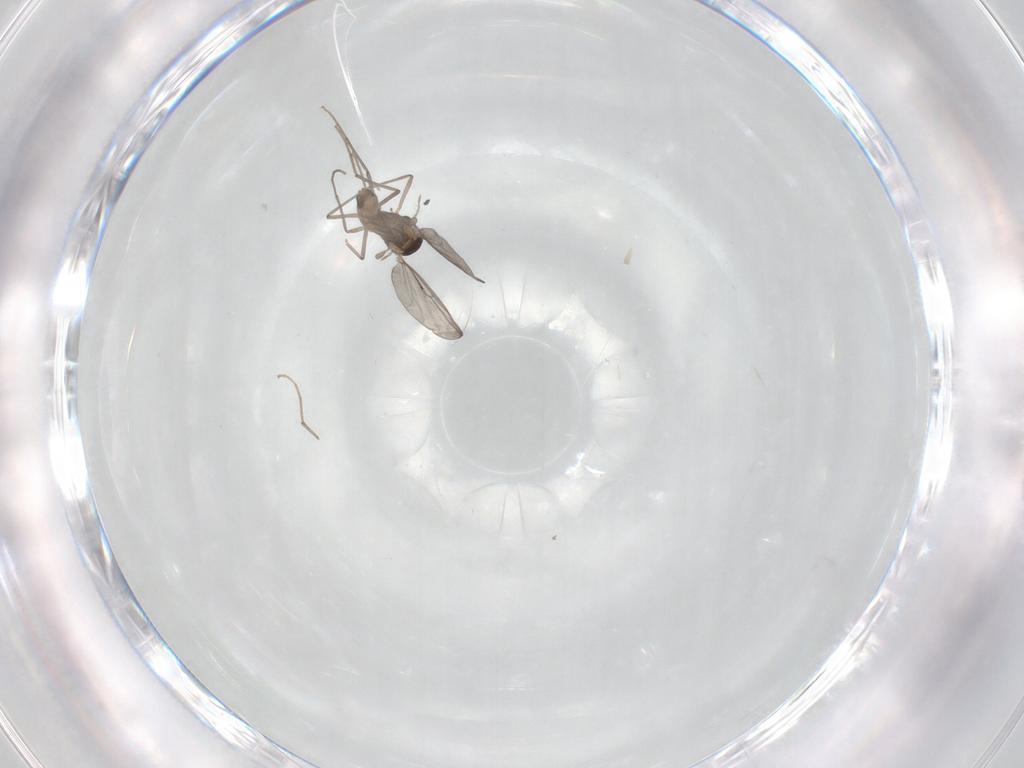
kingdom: Animalia
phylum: Arthropoda
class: Insecta
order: Diptera
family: Chironomidae
